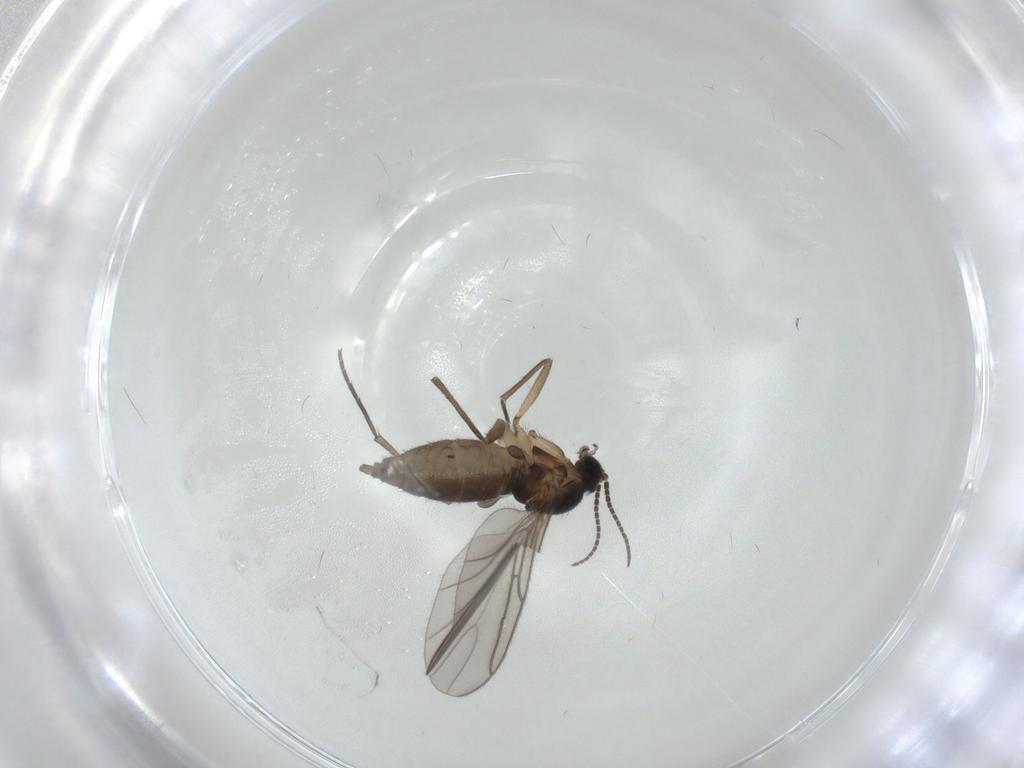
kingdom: Animalia
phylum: Arthropoda
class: Insecta
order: Diptera
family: Chironomidae
